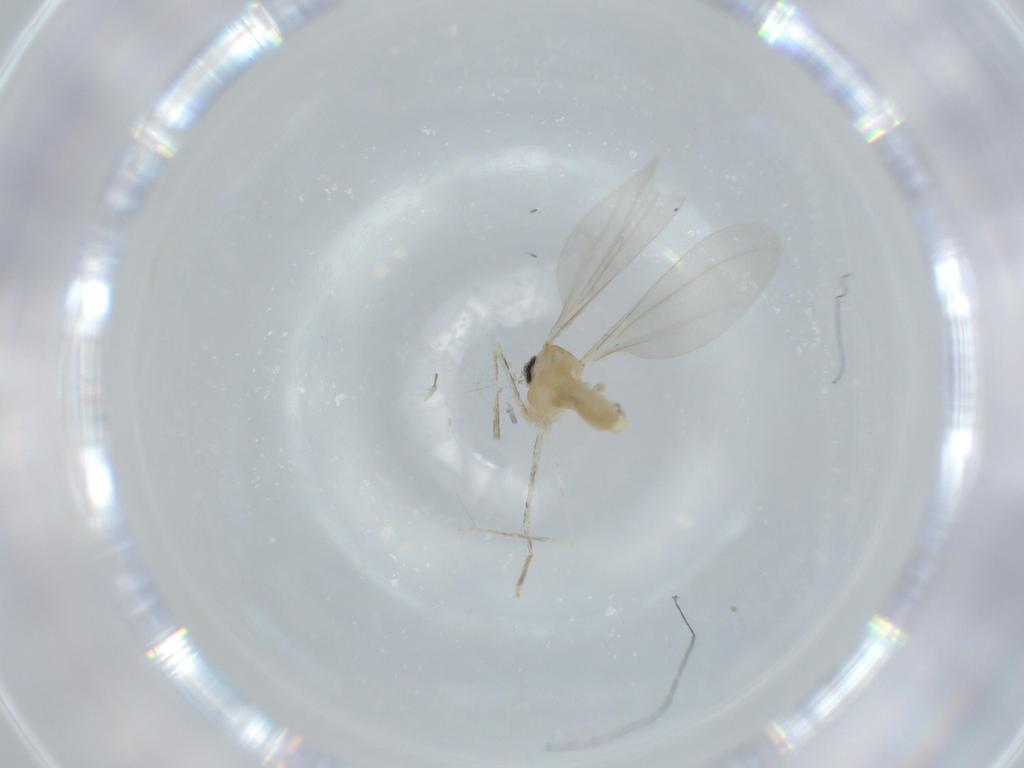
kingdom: Animalia
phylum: Arthropoda
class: Insecta
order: Diptera
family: Cecidomyiidae
